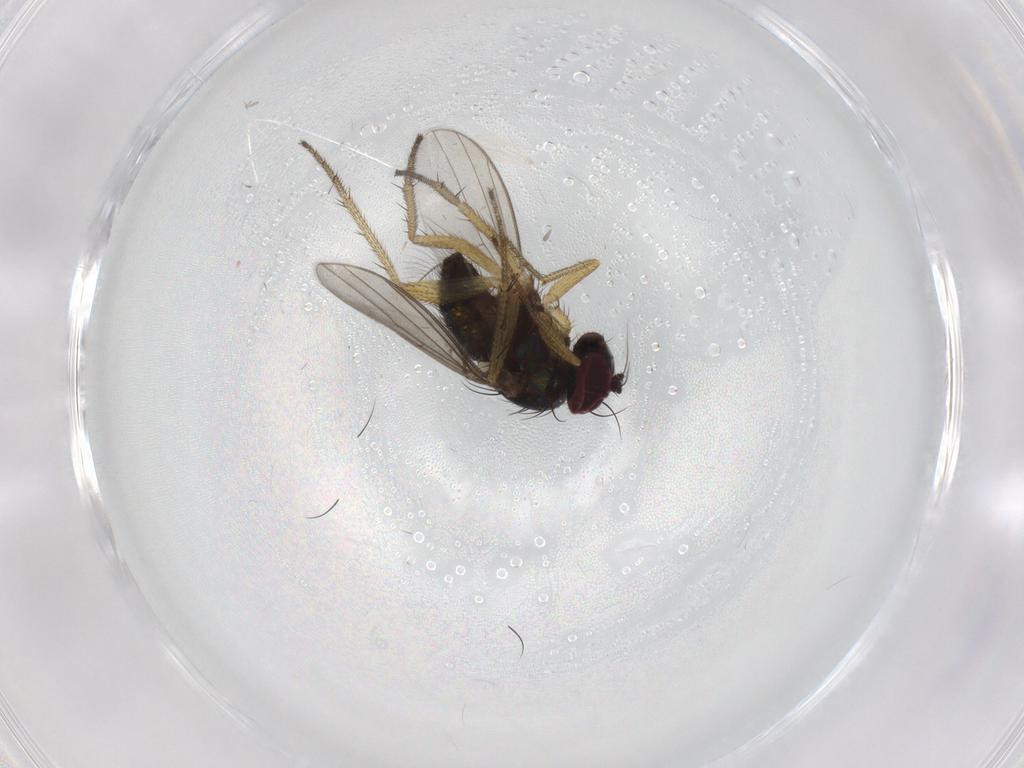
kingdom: Animalia
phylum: Arthropoda
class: Insecta
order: Diptera
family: Dolichopodidae
